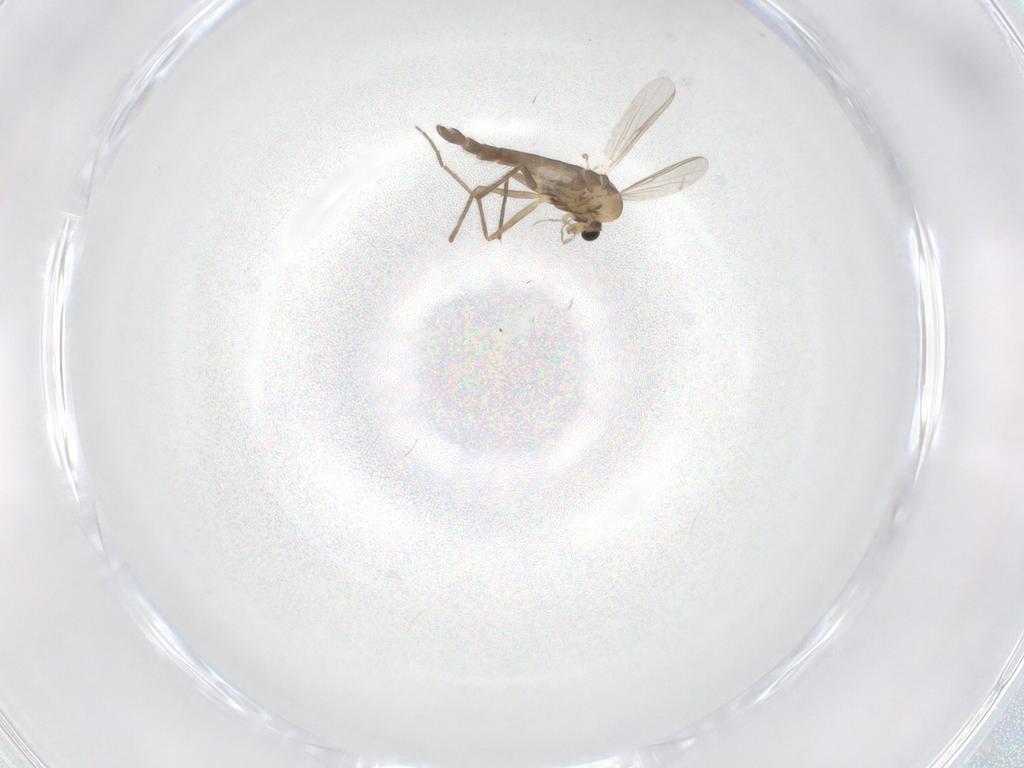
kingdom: Animalia
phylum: Arthropoda
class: Insecta
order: Diptera
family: Chironomidae
